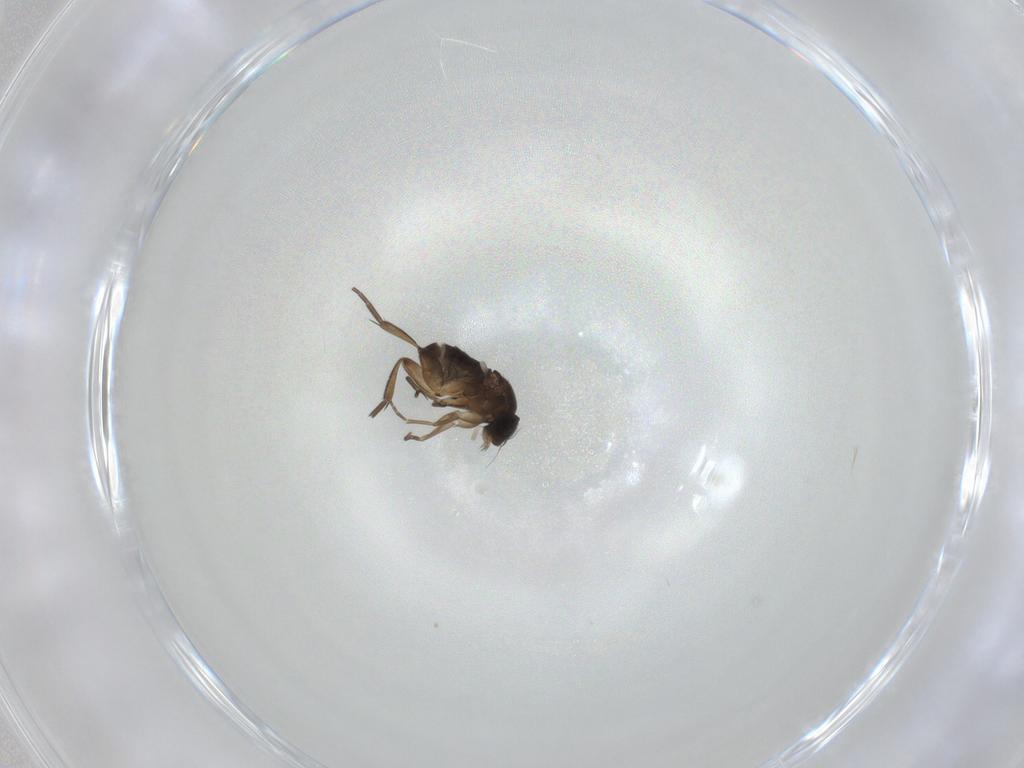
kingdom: Animalia
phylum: Arthropoda
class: Insecta
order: Diptera
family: Phoridae
